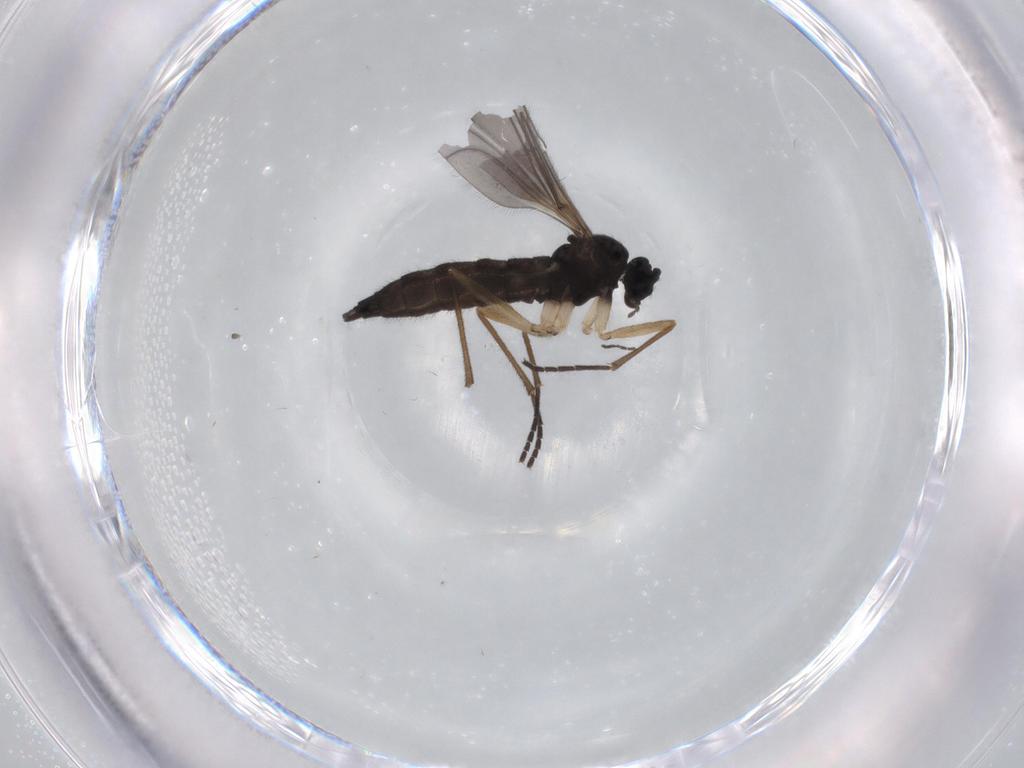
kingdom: Animalia
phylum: Arthropoda
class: Insecta
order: Diptera
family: Sciaridae
